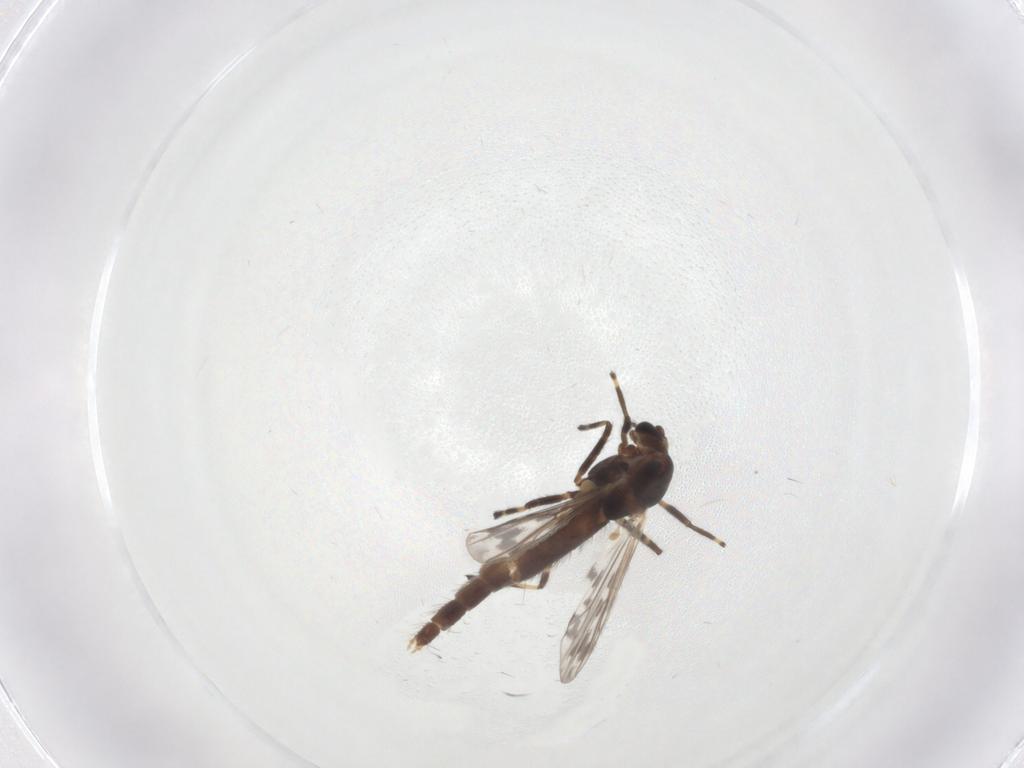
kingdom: Animalia
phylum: Arthropoda
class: Insecta
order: Diptera
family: Chironomidae
